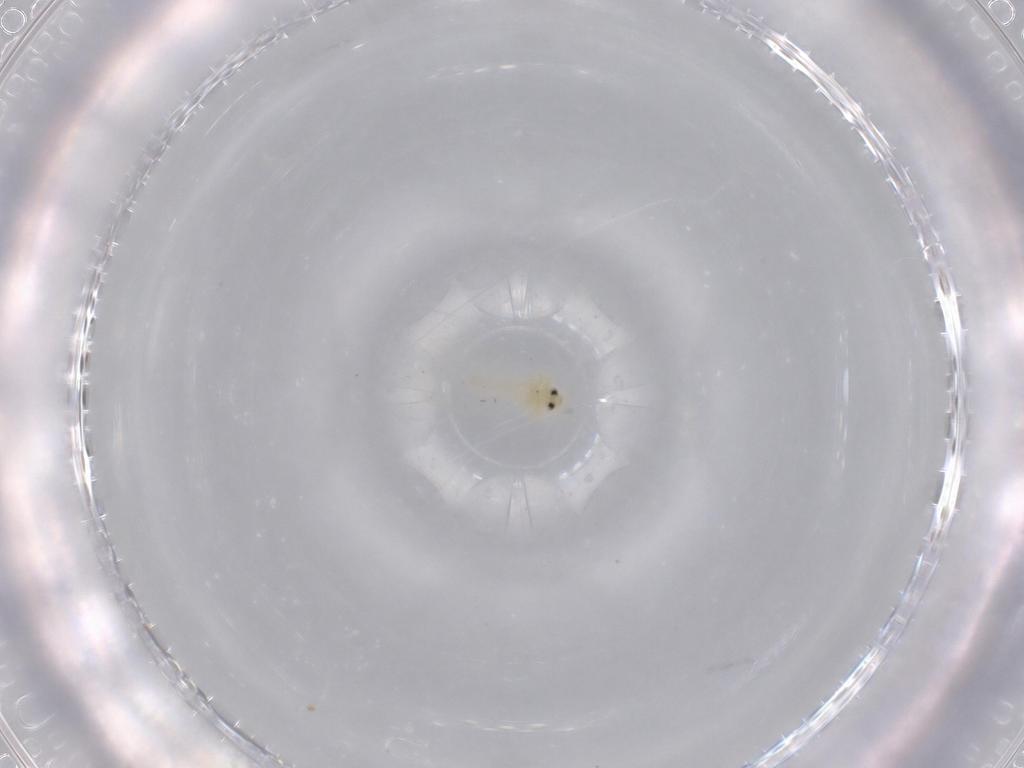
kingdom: Animalia
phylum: Arthropoda
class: Insecta
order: Hemiptera
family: Aleyrodidae
